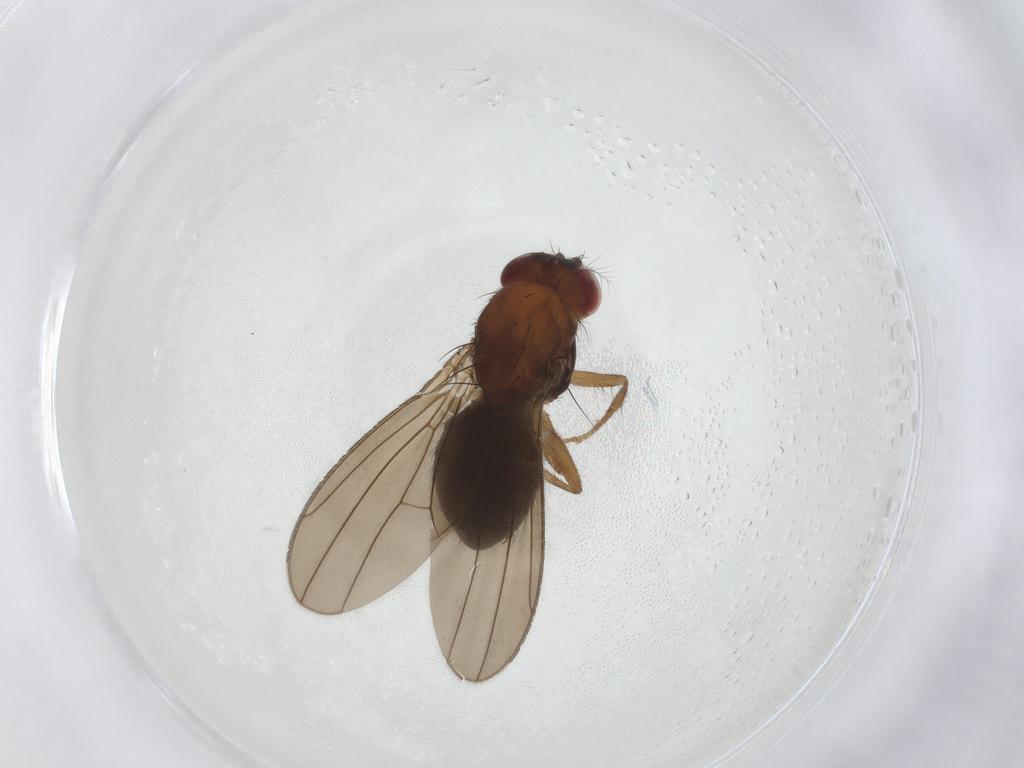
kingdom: Animalia
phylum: Arthropoda
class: Insecta
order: Diptera
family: Drosophilidae
